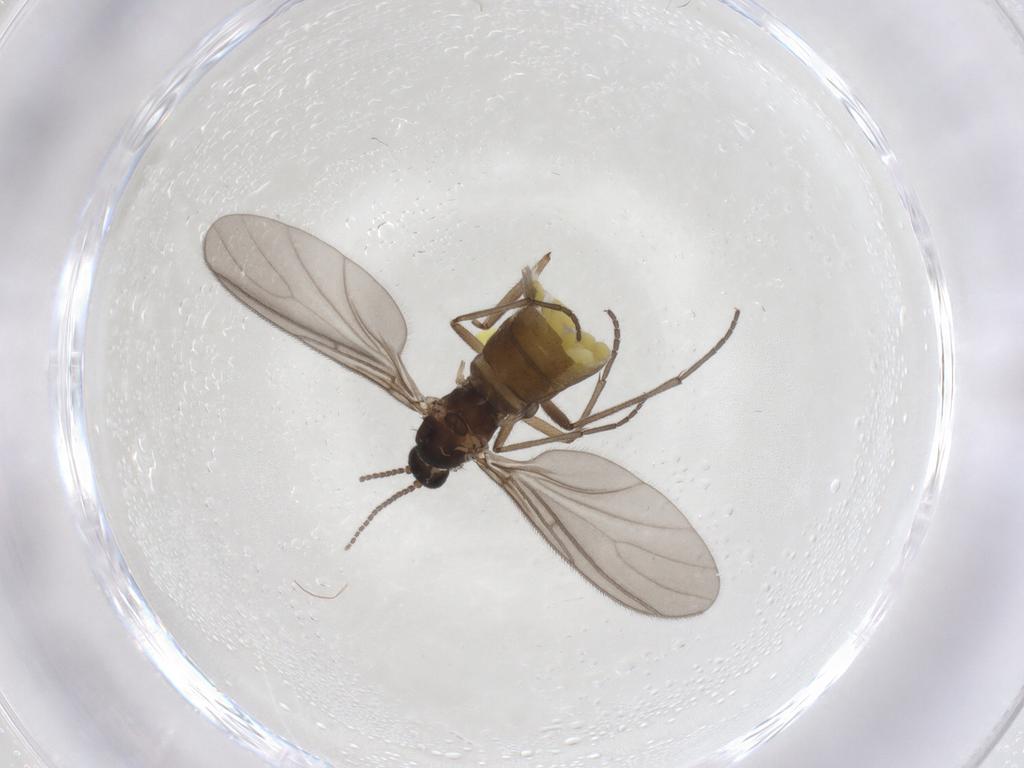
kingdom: Animalia
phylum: Arthropoda
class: Insecta
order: Diptera
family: Sciaridae
